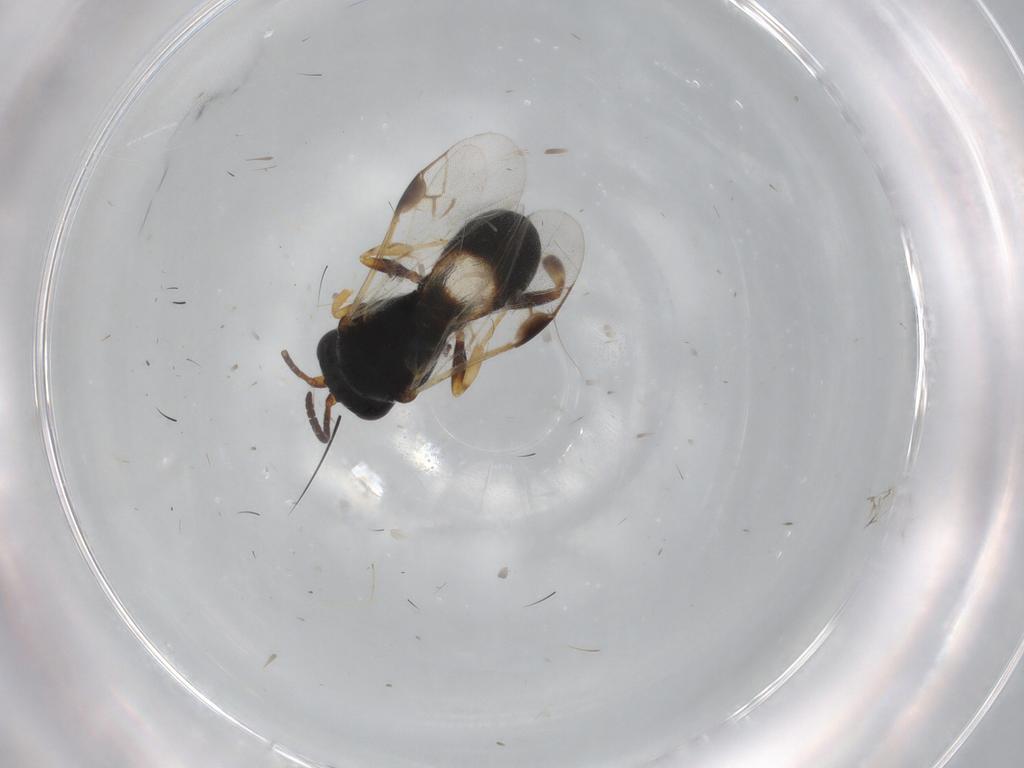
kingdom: Animalia
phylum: Arthropoda
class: Insecta
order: Hymenoptera
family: Braconidae
